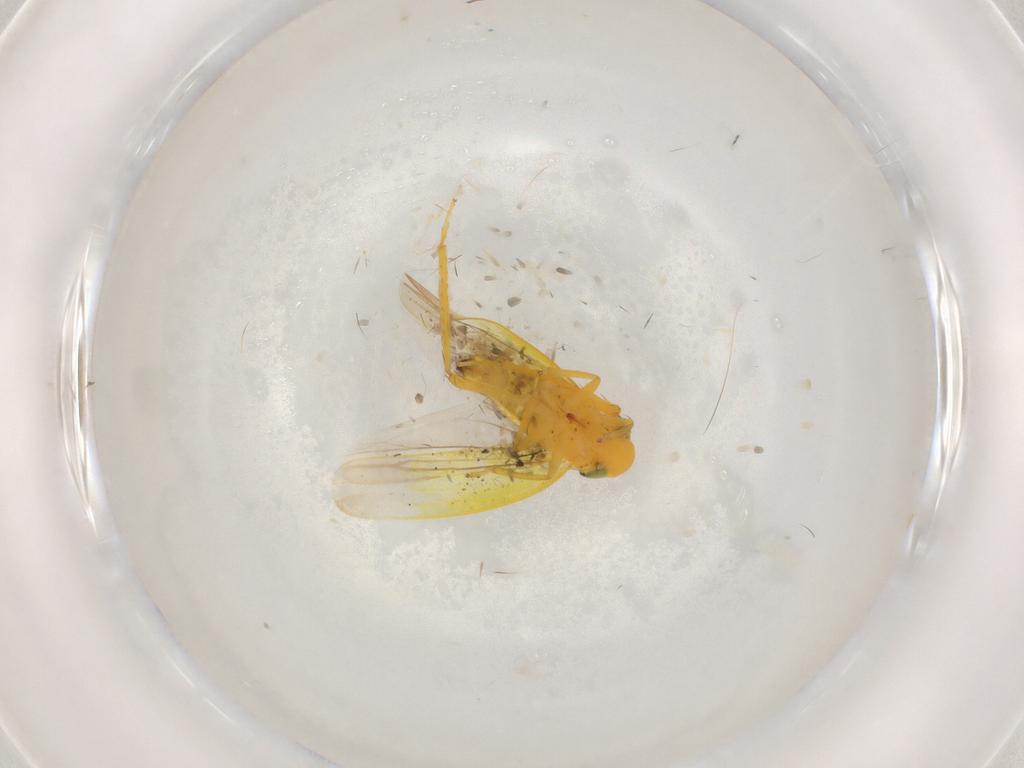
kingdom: Animalia
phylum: Arthropoda
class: Insecta
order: Hemiptera
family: Cicadellidae
